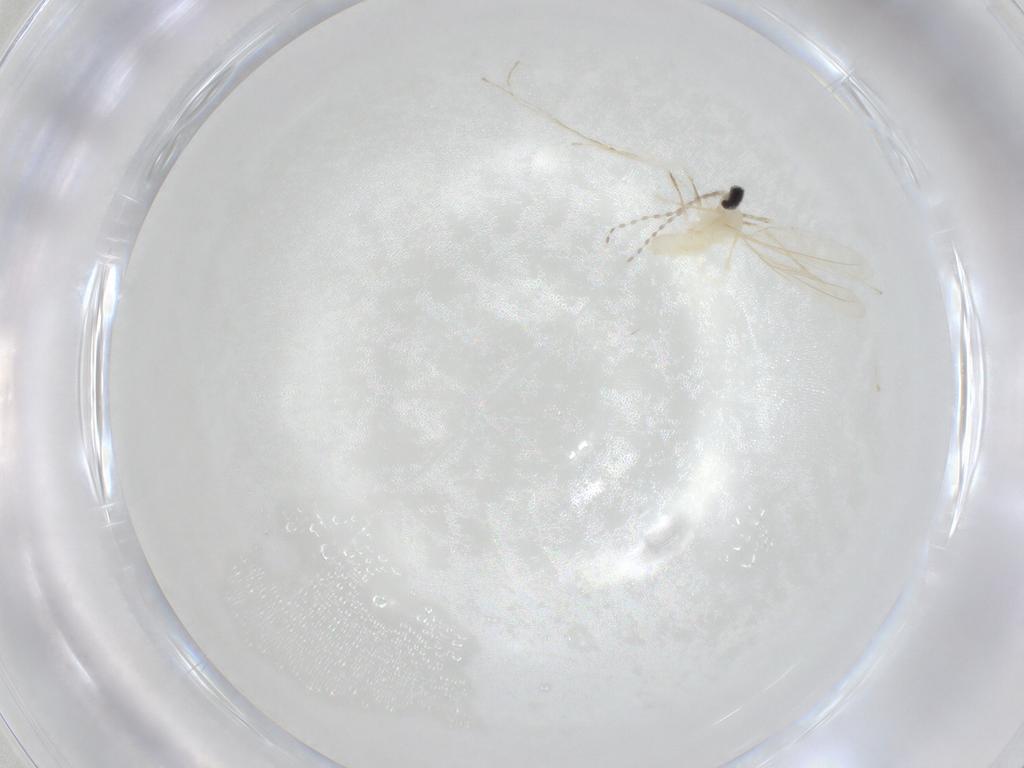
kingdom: Animalia
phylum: Arthropoda
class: Insecta
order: Diptera
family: Cecidomyiidae
